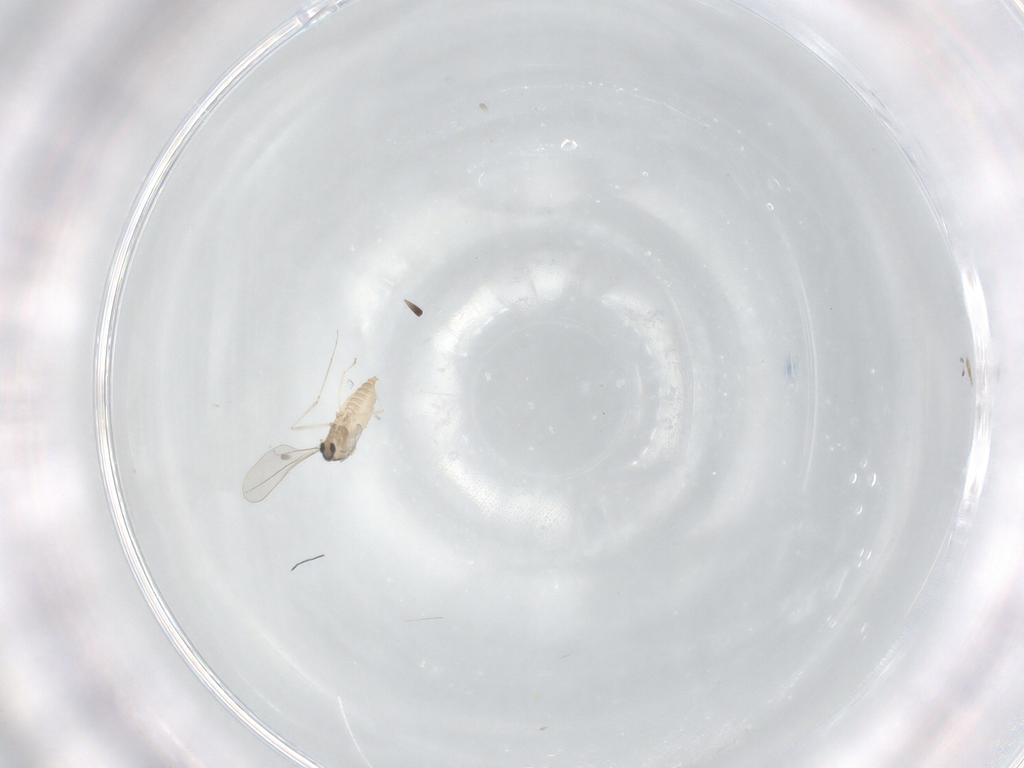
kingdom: Animalia
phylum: Arthropoda
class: Insecta
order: Diptera
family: Cecidomyiidae
